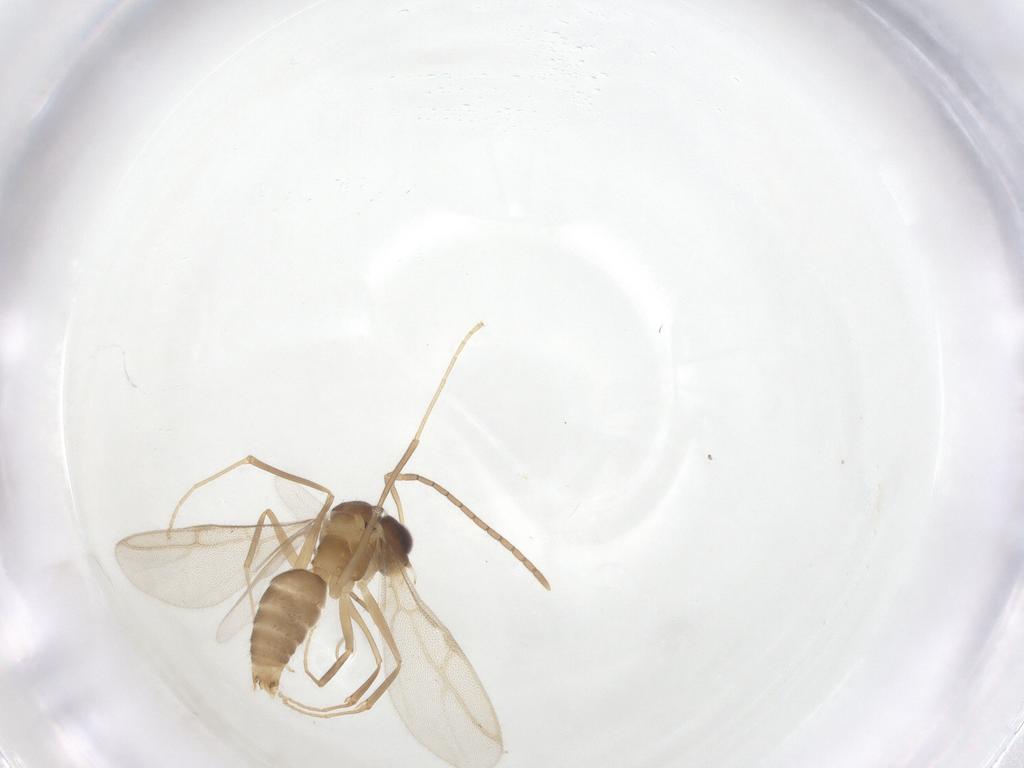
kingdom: Animalia
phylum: Arthropoda
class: Insecta
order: Hymenoptera
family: Formicidae
